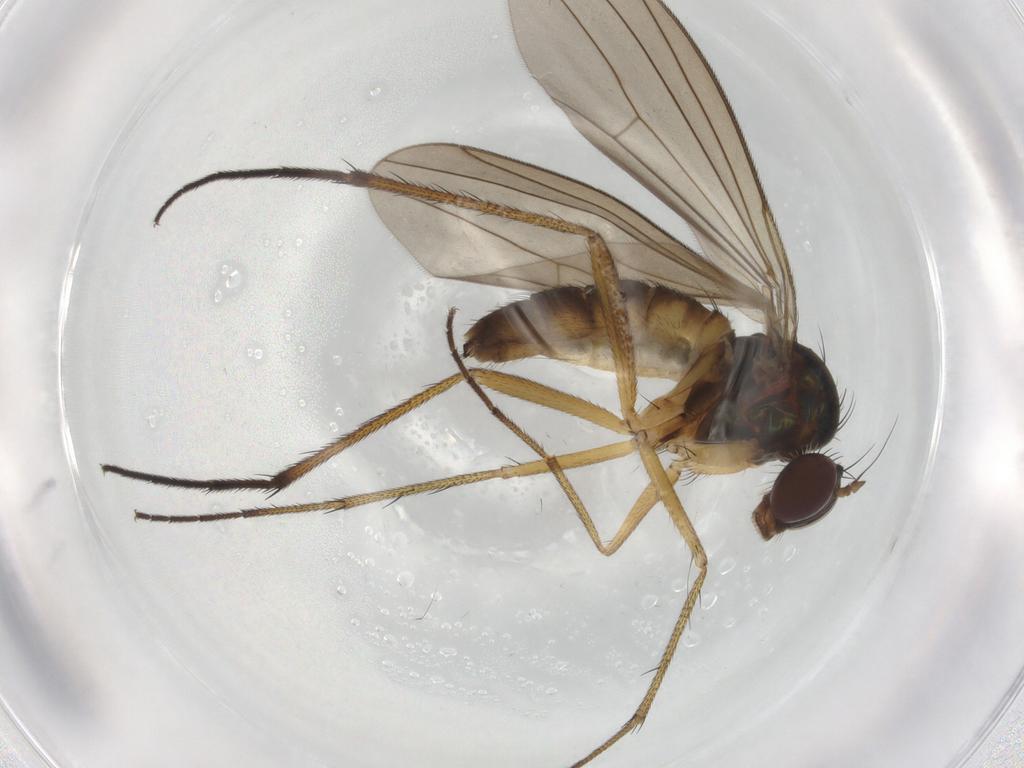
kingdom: Animalia
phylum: Arthropoda
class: Insecta
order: Diptera
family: Dolichopodidae
